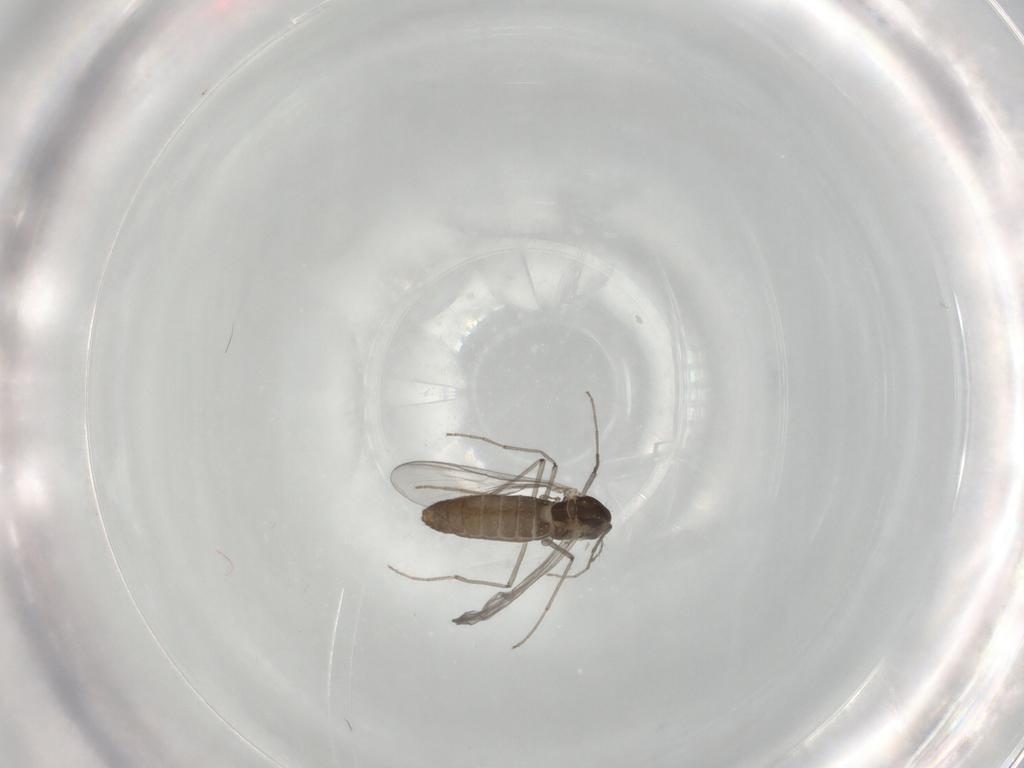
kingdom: Animalia
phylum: Arthropoda
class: Insecta
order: Diptera
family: Chironomidae
